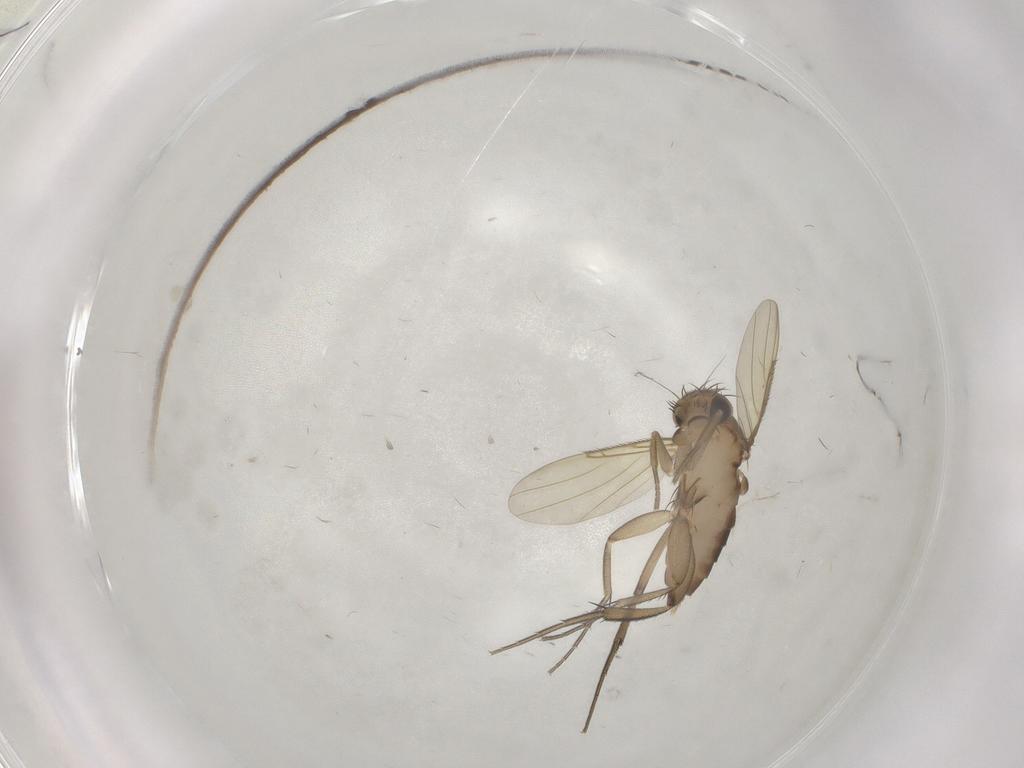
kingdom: Animalia
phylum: Arthropoda
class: Insecta
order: Diptera
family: Phoridae
